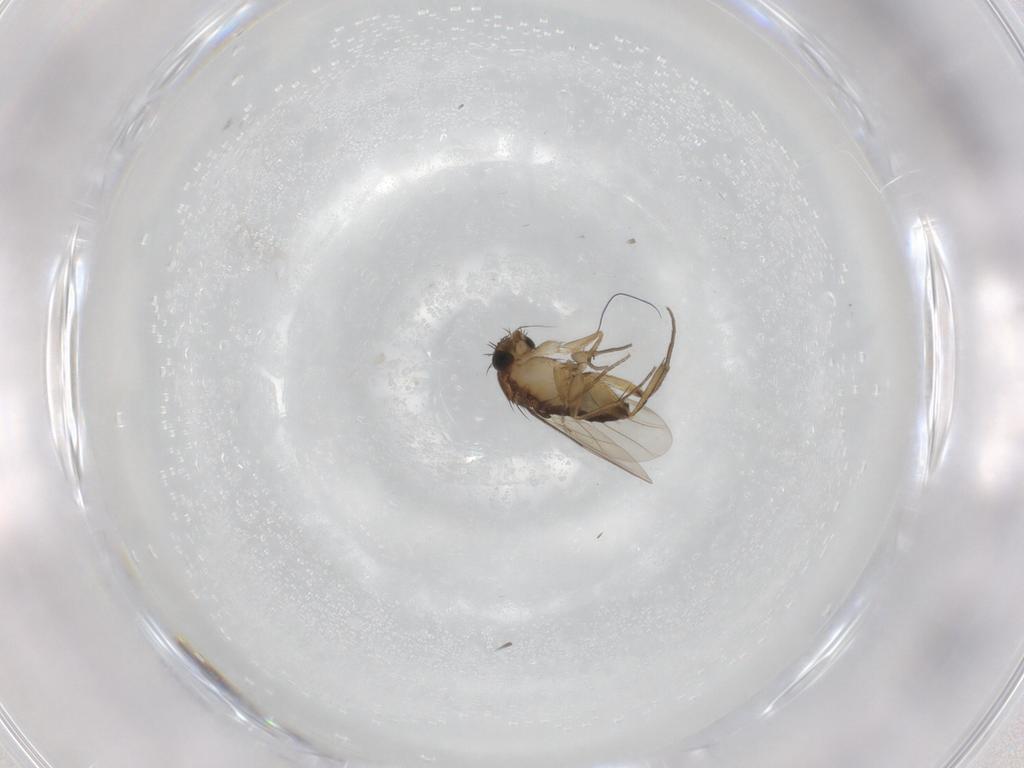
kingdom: Animalia
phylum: Arthropoda
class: Insecta
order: Diptera
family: Ceratopogonidae
